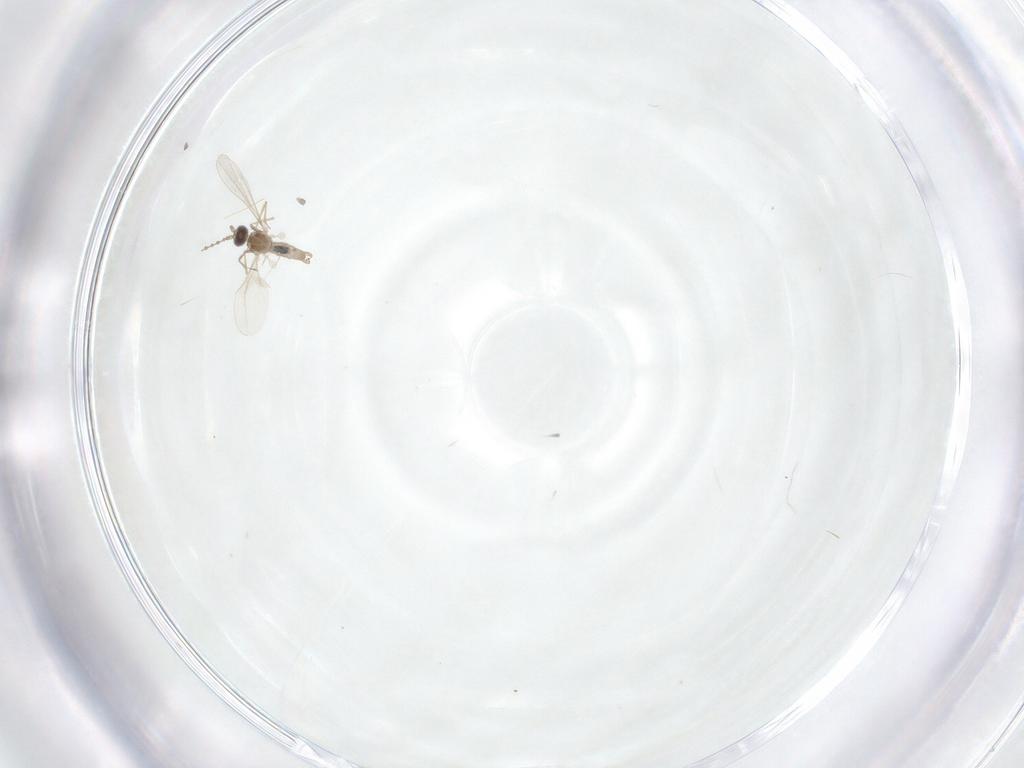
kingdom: Animalia
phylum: Arthropoda
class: Insecta
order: Diptera
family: Cecidomyiidae
